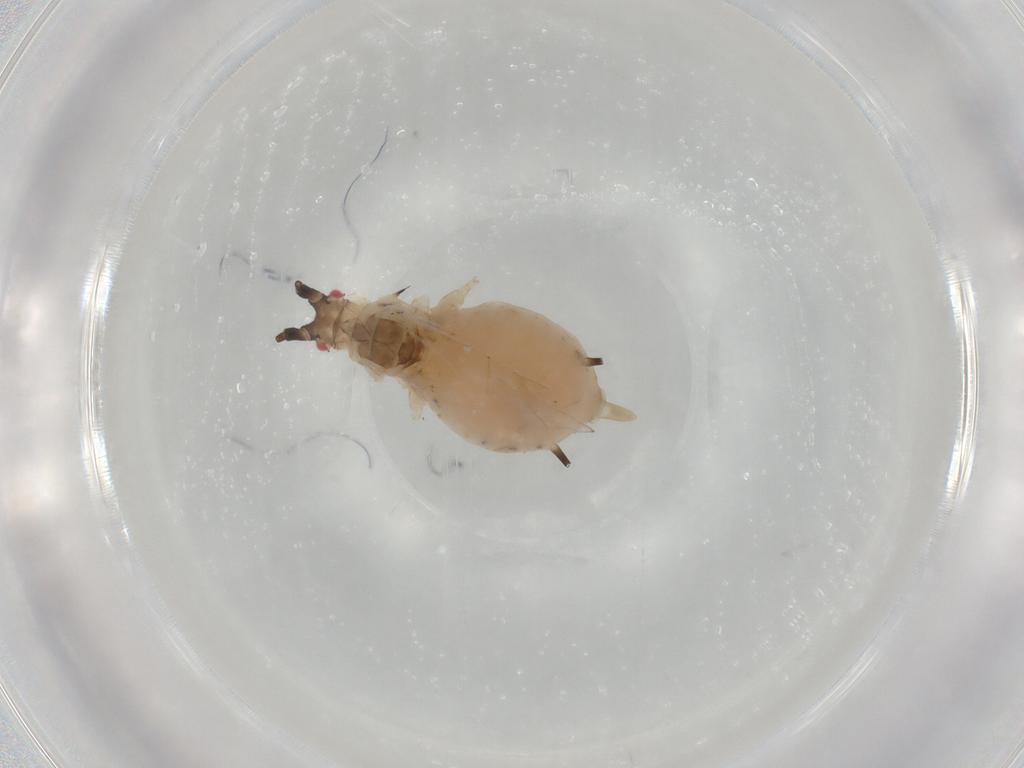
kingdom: Animalia
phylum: Arthropoda
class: Insecta
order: Hemiptera
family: Aphididae
